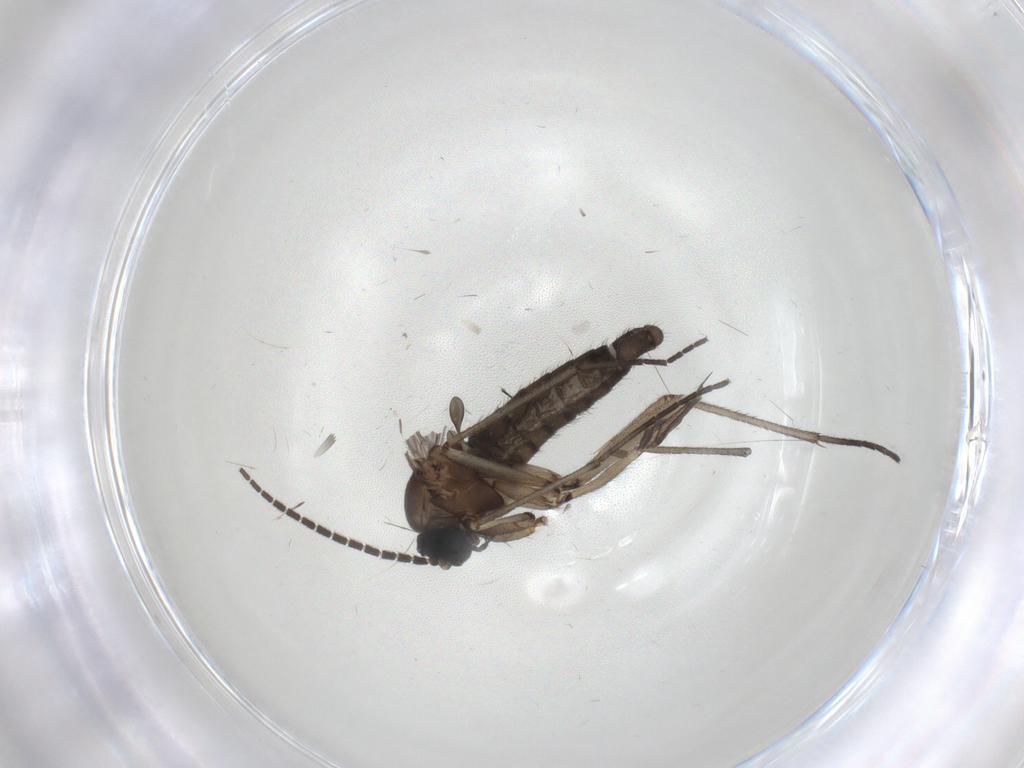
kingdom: Animalia
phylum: Arthropoda
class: Insecta
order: Diptera
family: Sciaridae
